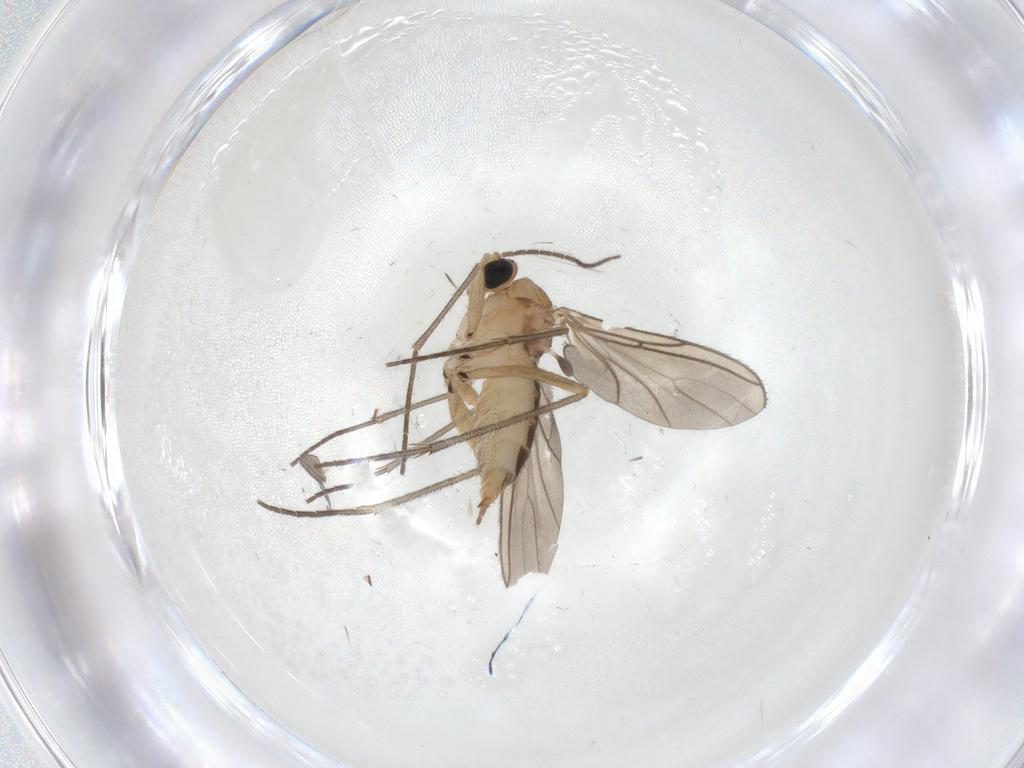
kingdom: Animalia
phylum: Arthropoda
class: Insecta
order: Diptera
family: Sciaridae
